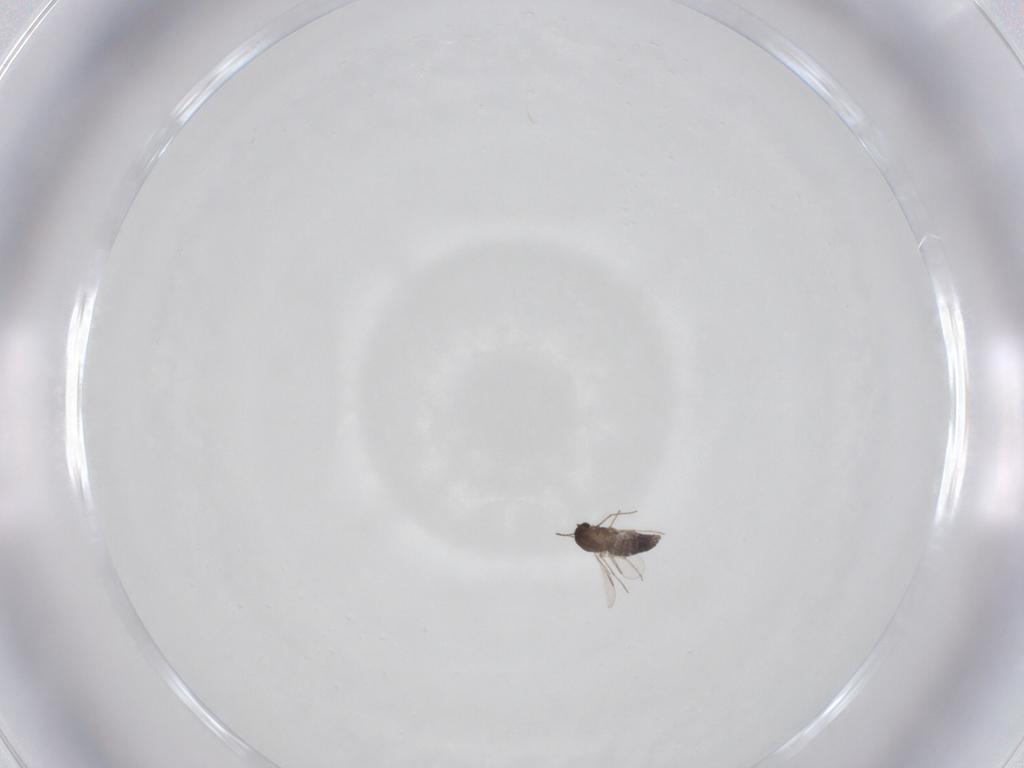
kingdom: Animalia
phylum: Arthropoda
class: Insecta
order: Diptera
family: Chironomidae
